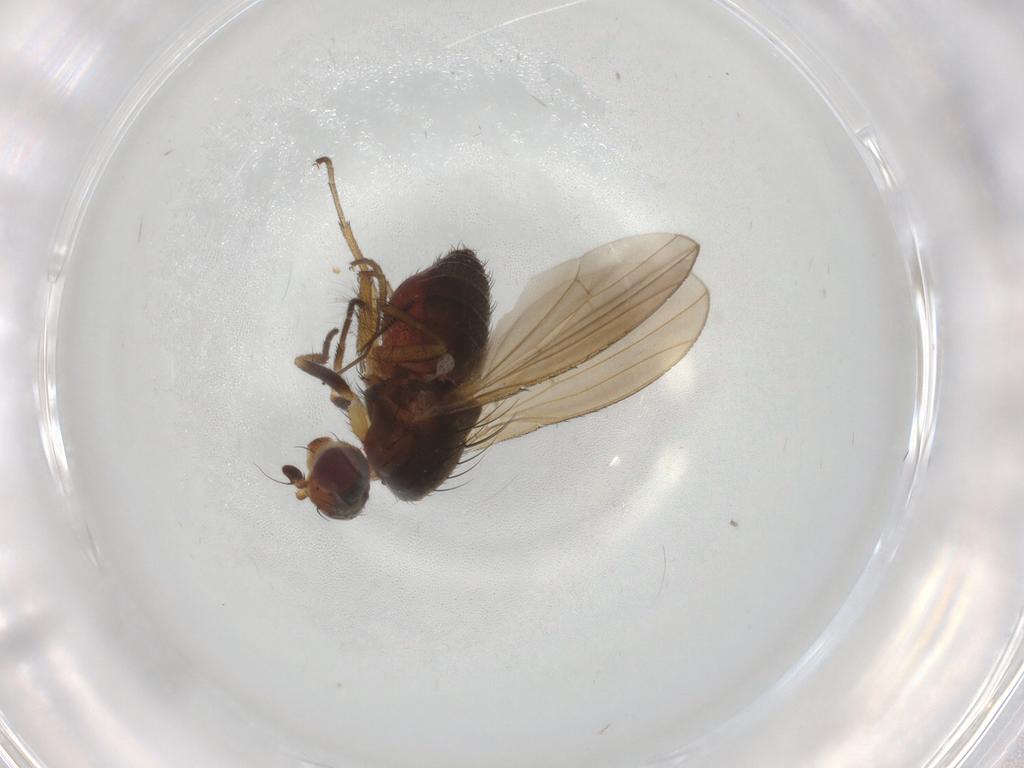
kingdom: Animalia
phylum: Arthropoda
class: Insecta
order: Diptera
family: Heleomyzidae
